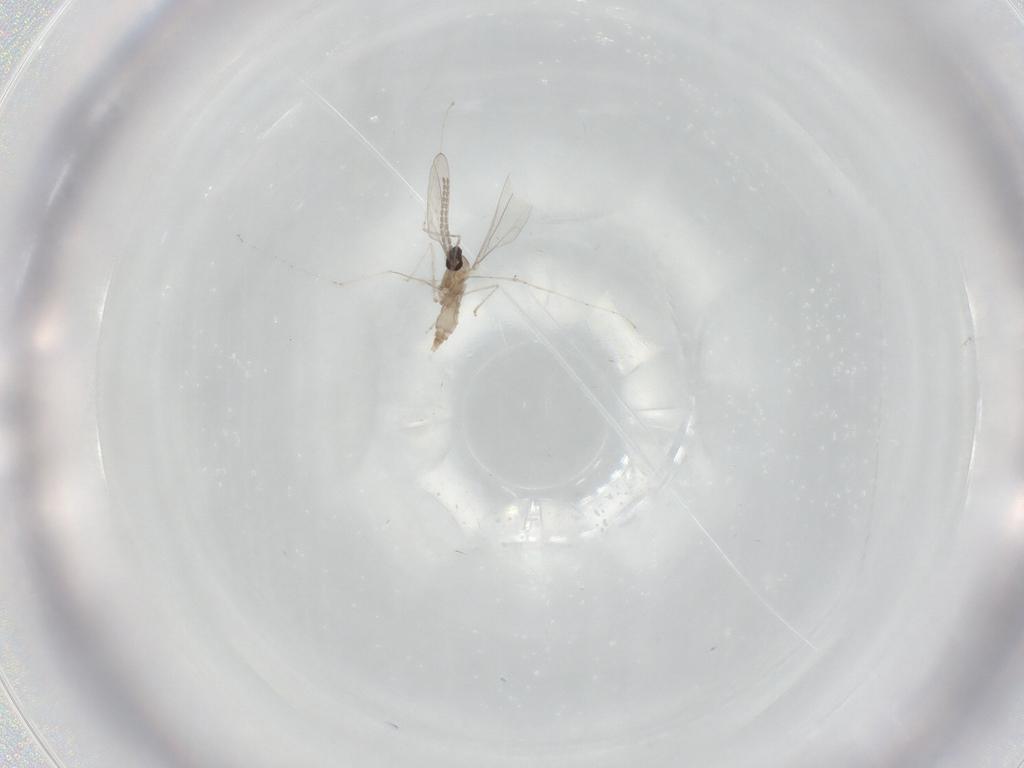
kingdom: Animalia
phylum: Arthropoda
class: Insecta
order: Diptera
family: Cecidomyiidae
